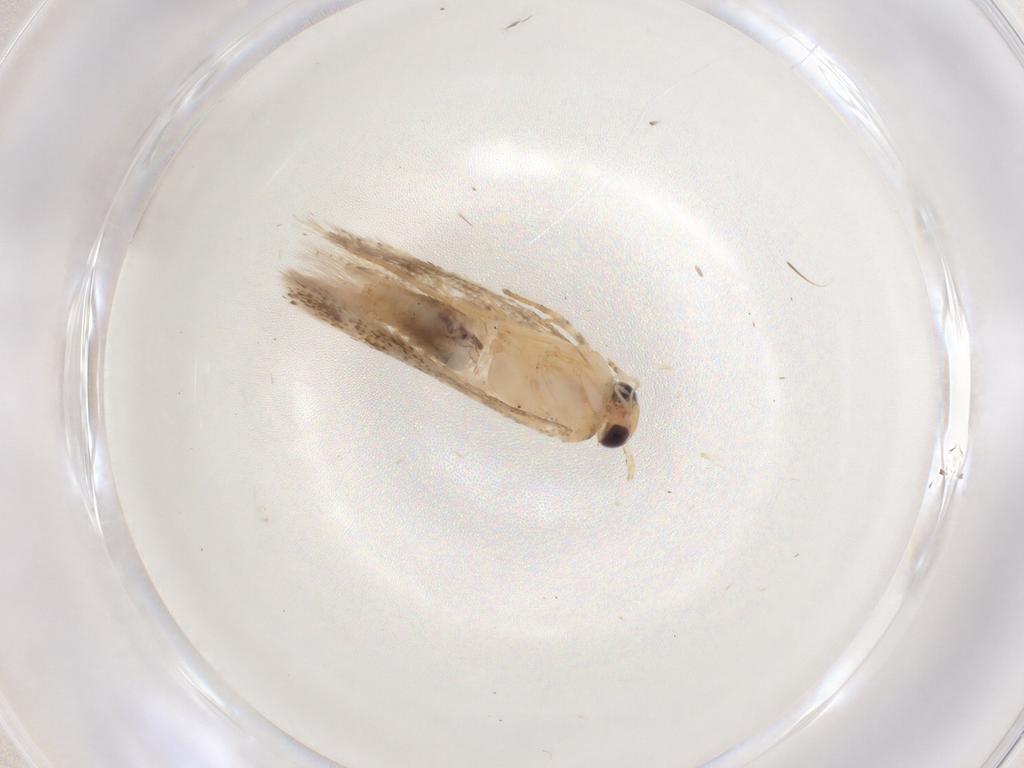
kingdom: Animalia
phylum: Arthropoda
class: Insecta
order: Lepidoptera
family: Gelechiidae
